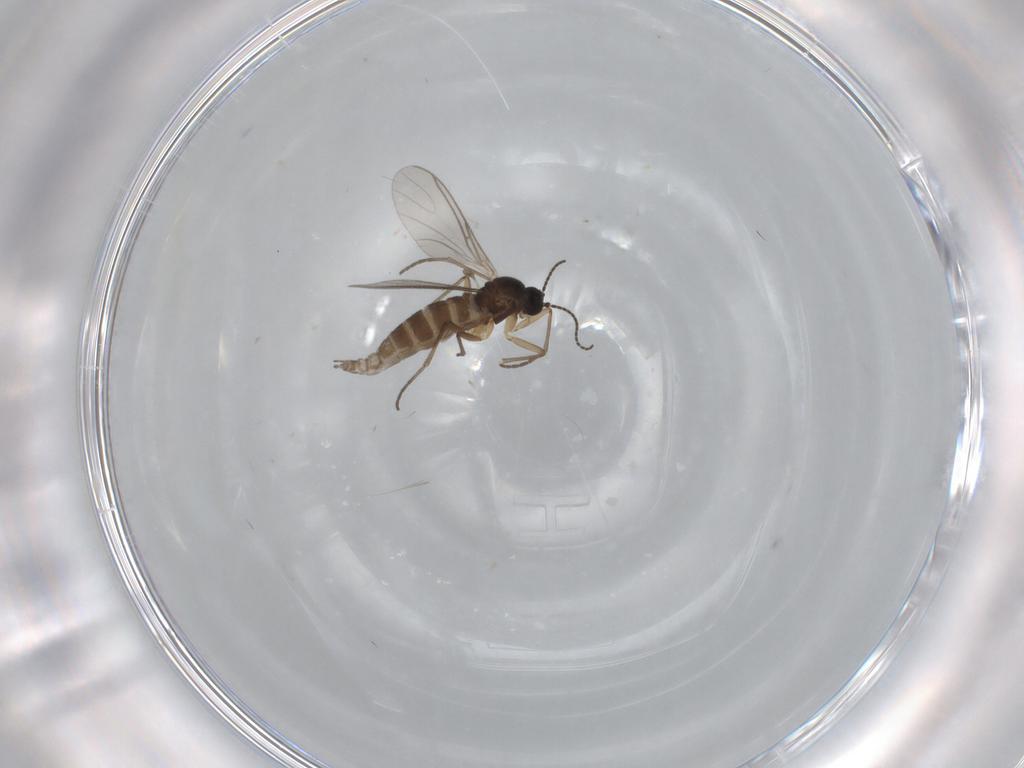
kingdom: Animalia
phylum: Arthropoda
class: Insecta
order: Diptera
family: Sciaridae
